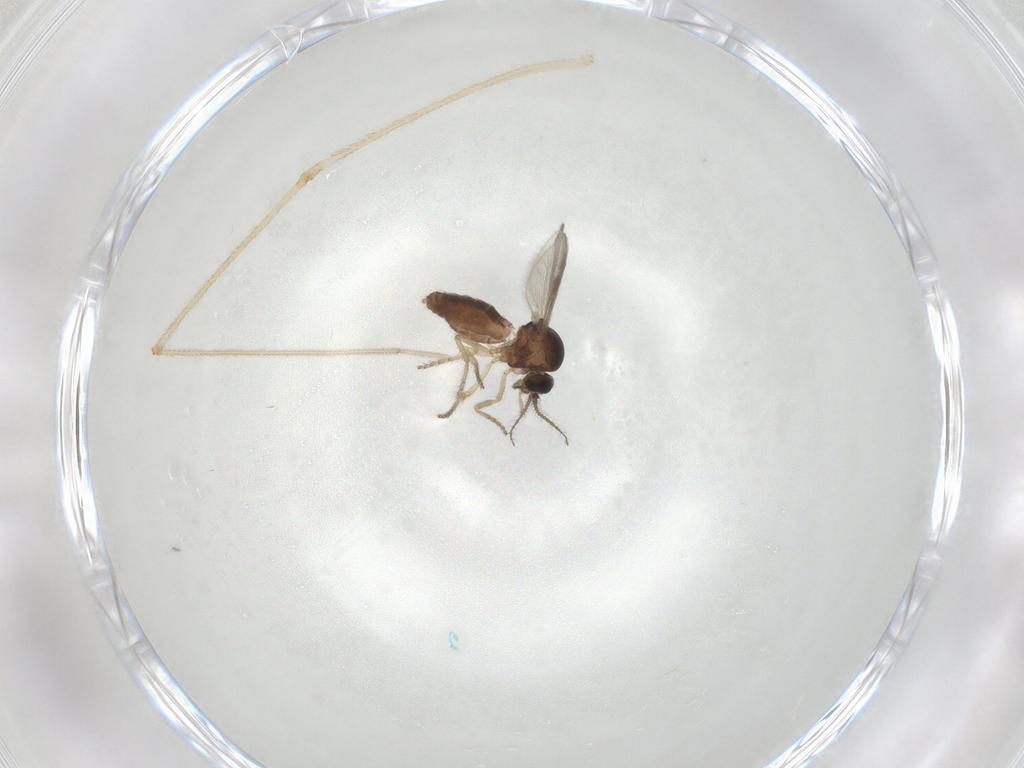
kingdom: Animalia
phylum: Arthropoda
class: Insecta
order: Diptera
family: Ceratopogonidae
